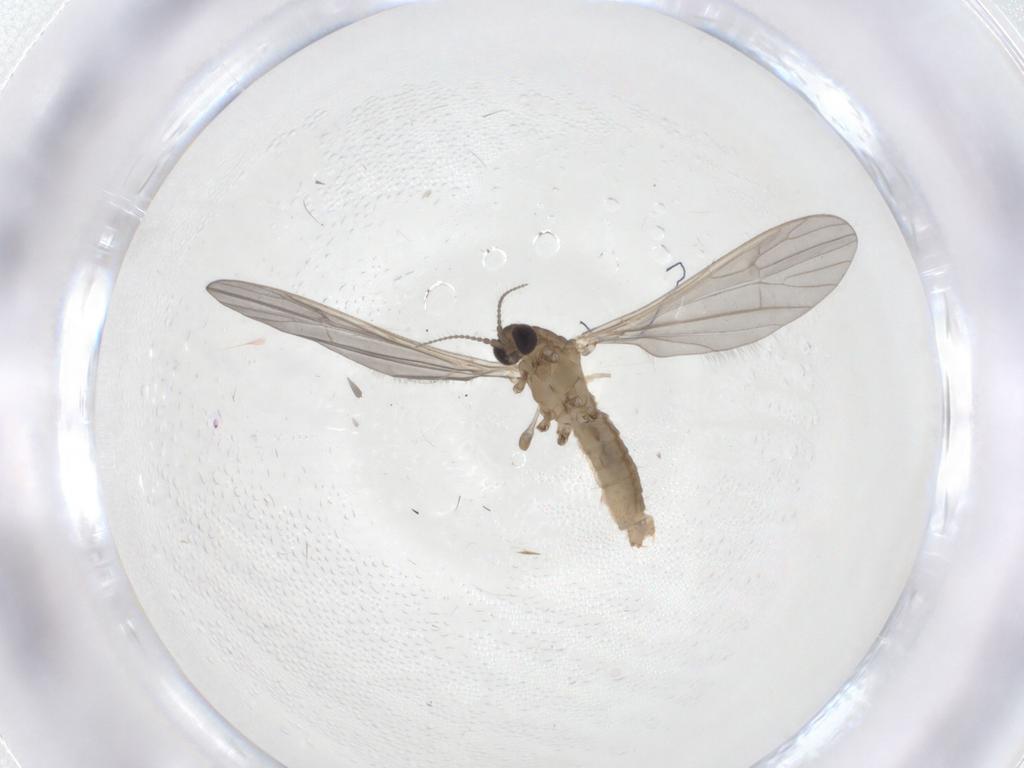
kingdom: Animalia
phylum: Arthropoda
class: Insecta
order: Diptera
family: Limoniidae
